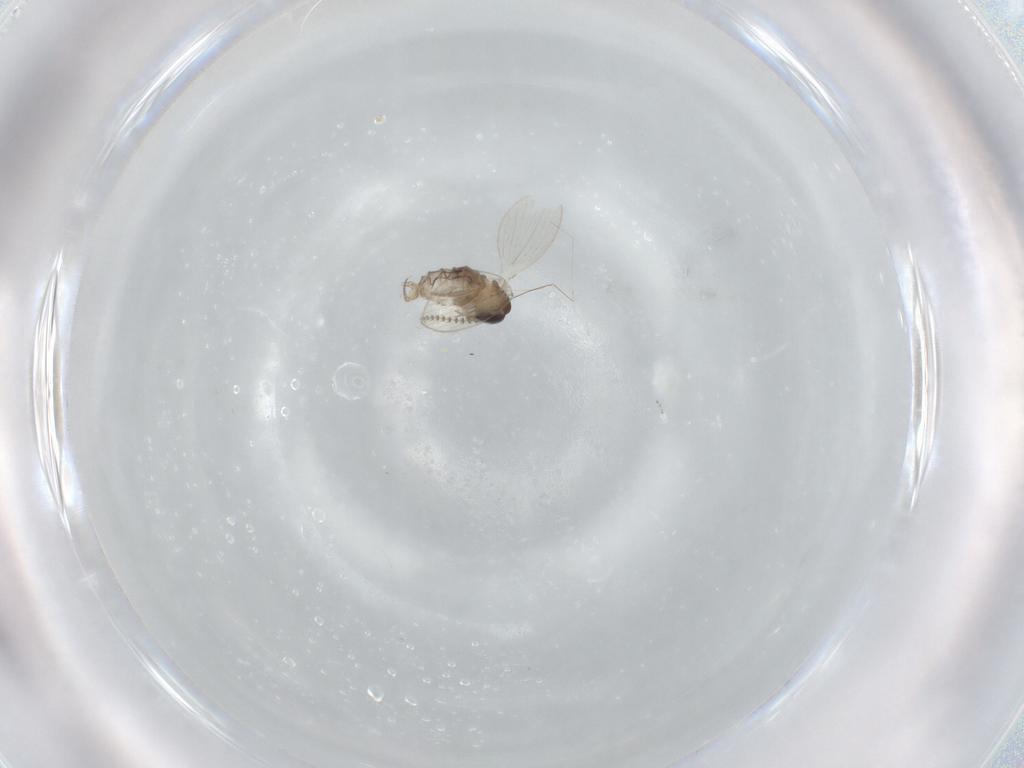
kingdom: Animalia
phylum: Arthropoda
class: Insecta
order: Diptera
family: Psychodidae
